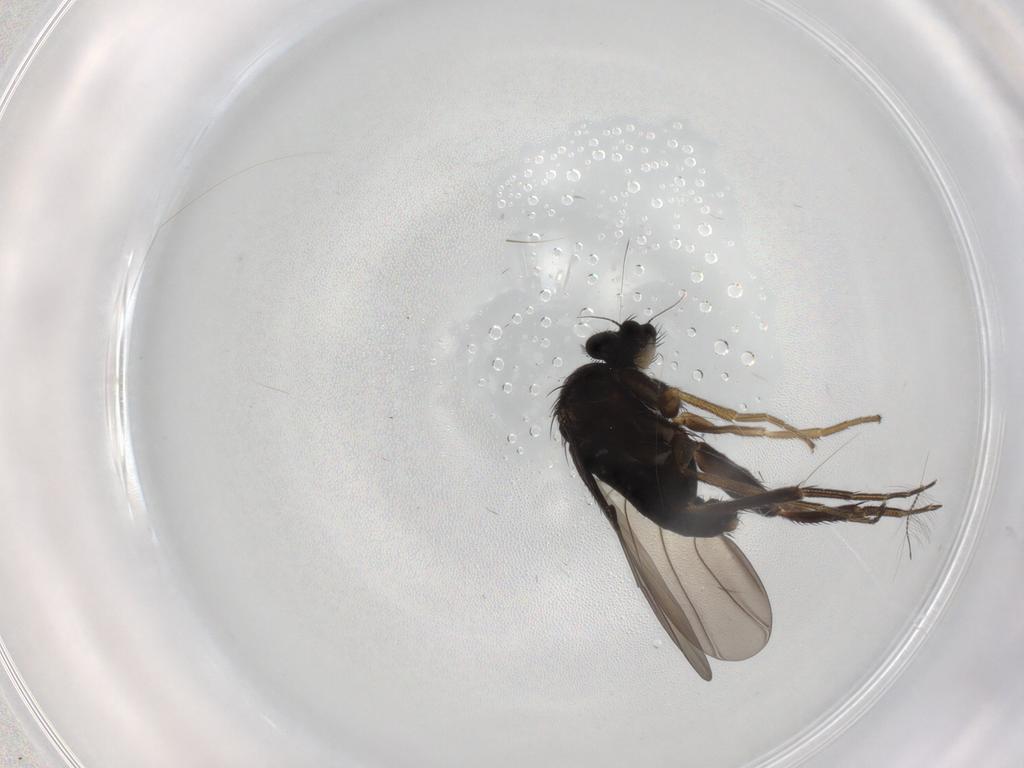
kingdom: Animalia
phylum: Arthropoda
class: Insecta
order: Diptera
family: Phoridae
